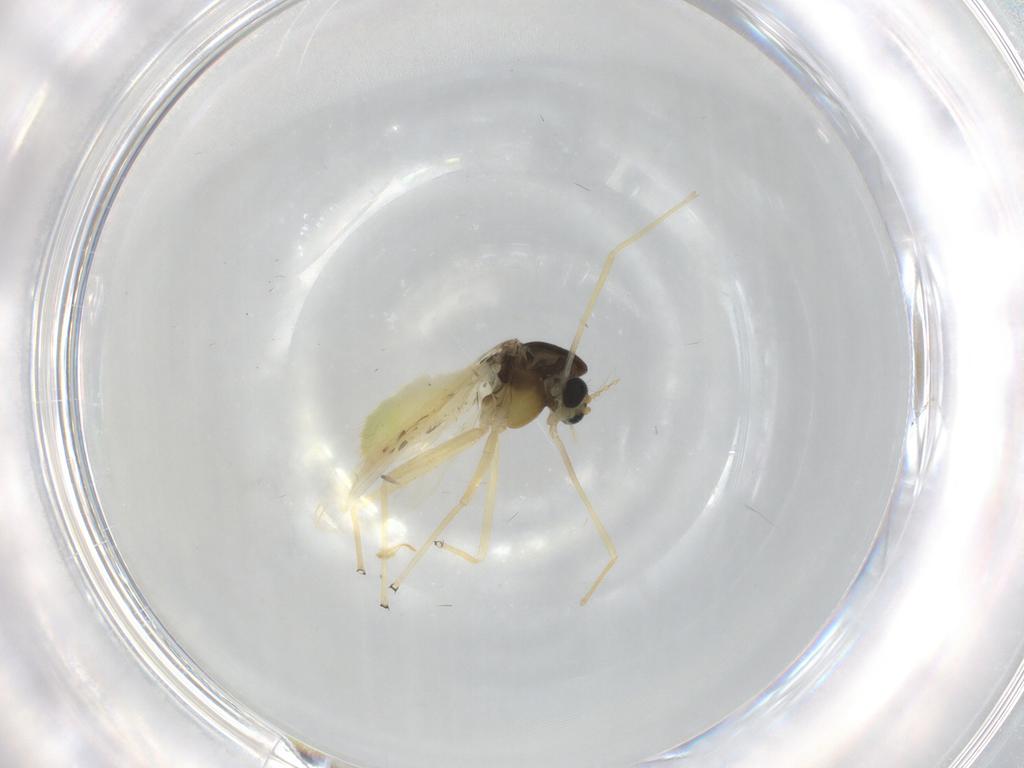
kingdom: Animalia
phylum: Arthropoda
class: Insecta
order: Diptera
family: Chironomidae
